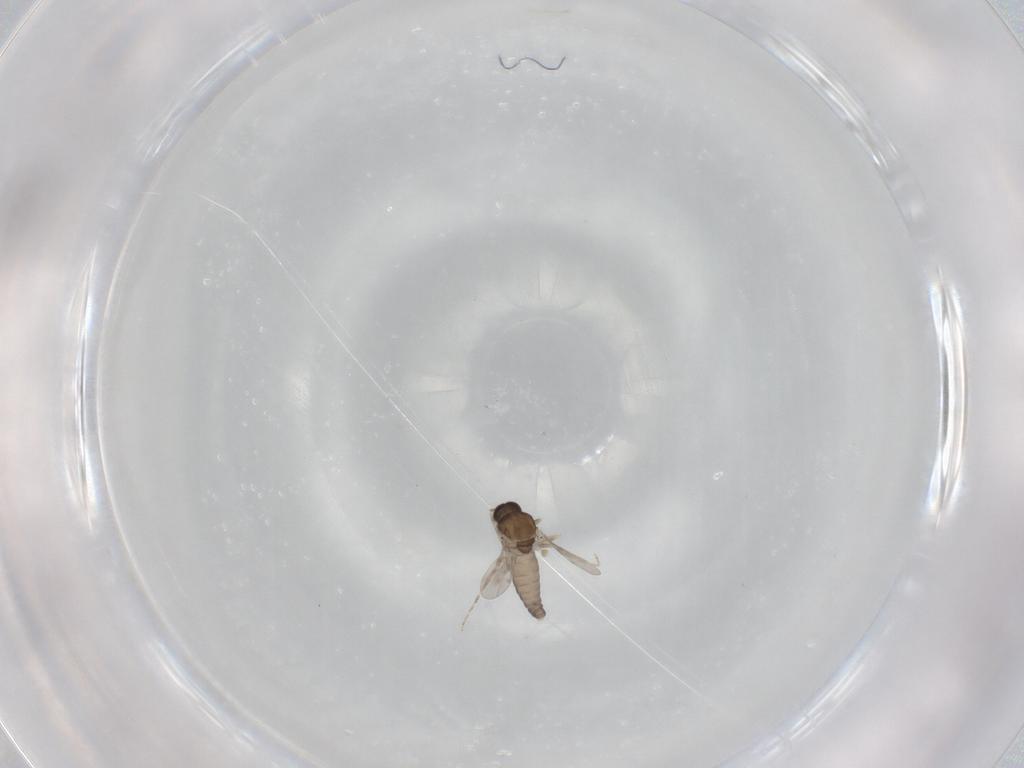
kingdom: Animalia
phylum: Arthropoda
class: Insecta
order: Diptera
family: Ceratopogonidae
